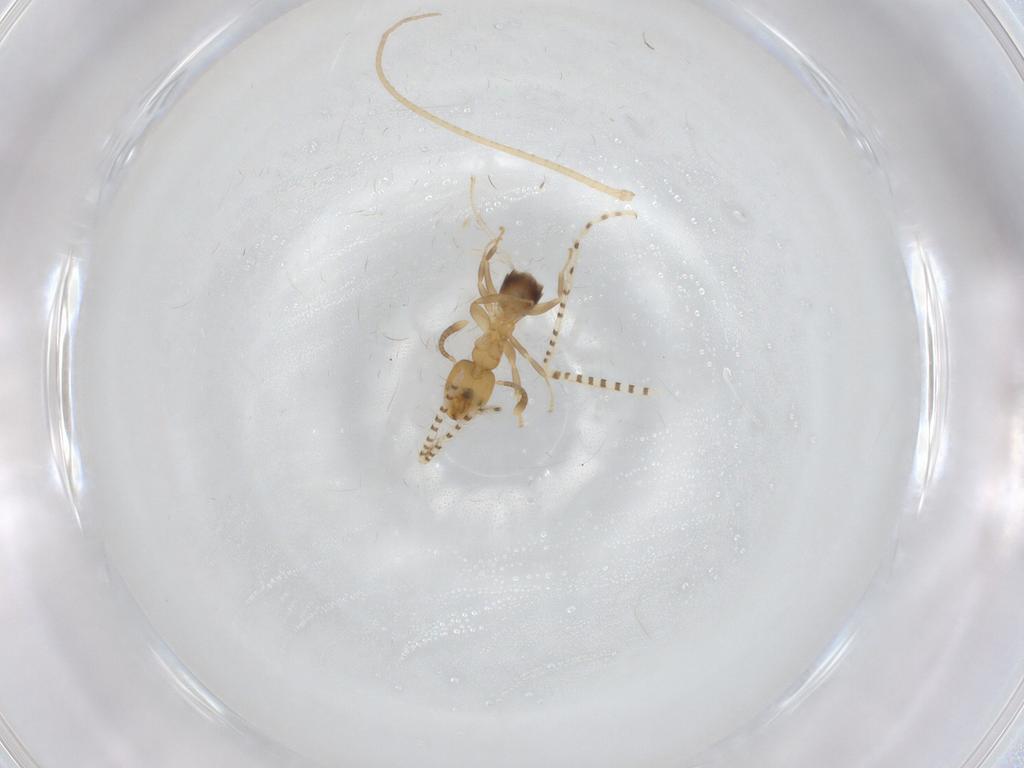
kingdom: Animalia
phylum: Arthropoda
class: Insecta
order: Hymenoptera
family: Formicidae
